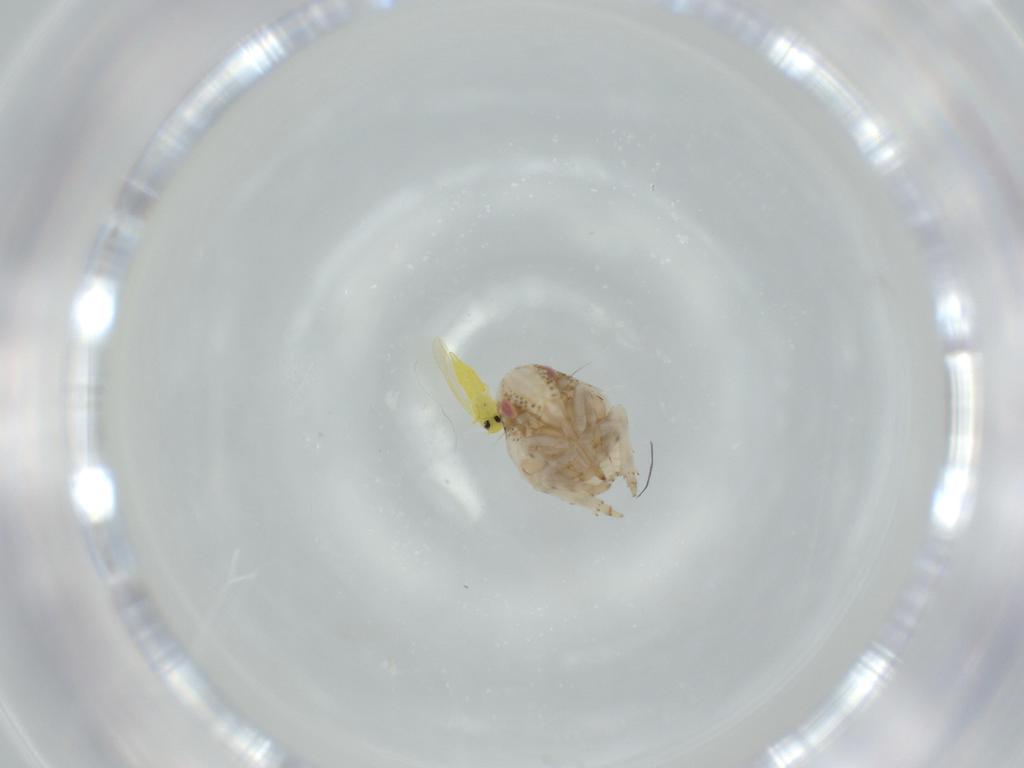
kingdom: Animalia
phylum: Arthropoda
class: Insecta
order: Hemiptera
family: Acanaloniidae
